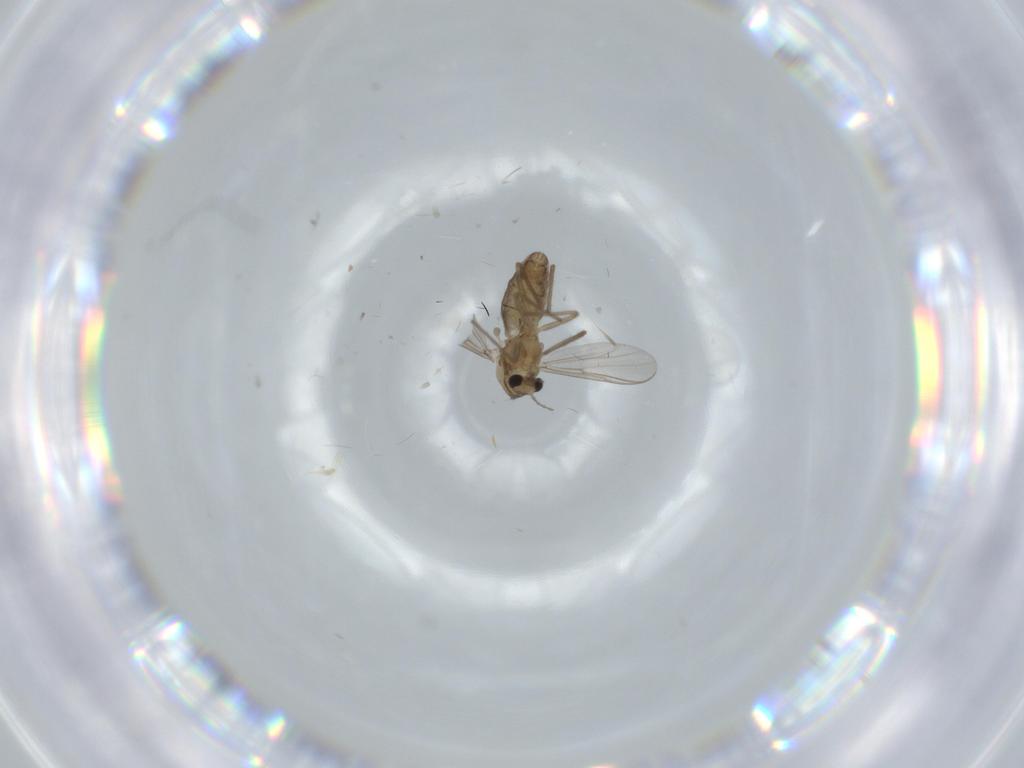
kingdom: Animalia
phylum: Arthropoda
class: Insecta
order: Diptera
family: Chironomidae
